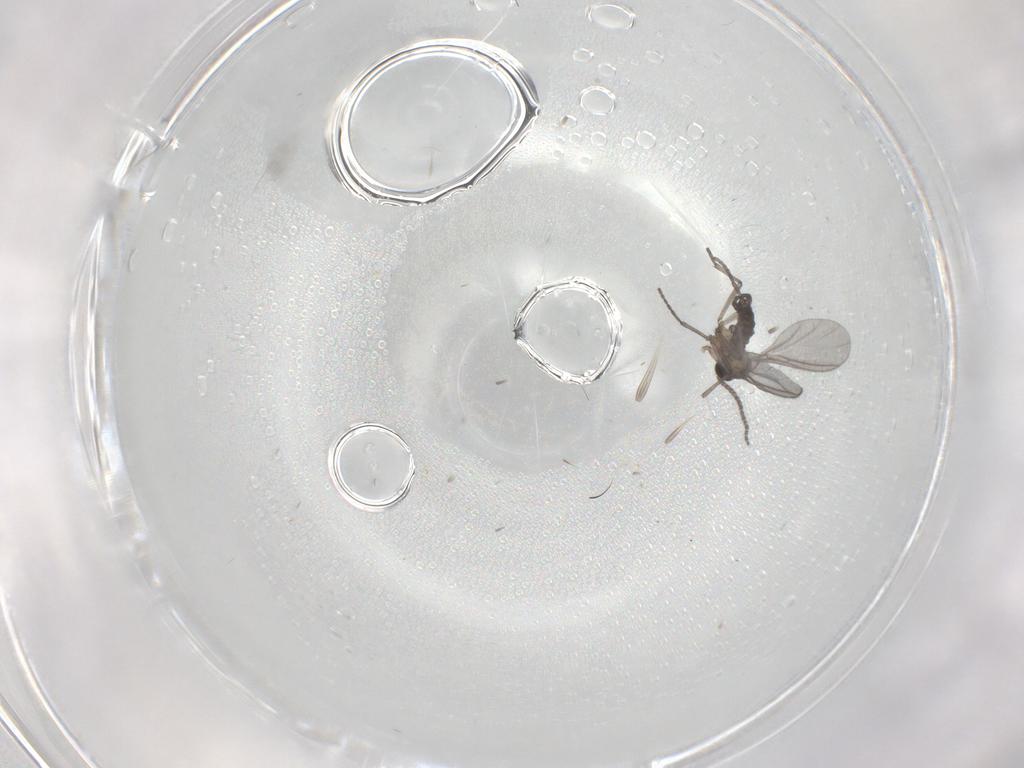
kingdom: Animalia
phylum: Arthropoda
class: Insecta
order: Diptera
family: Sciaridae
